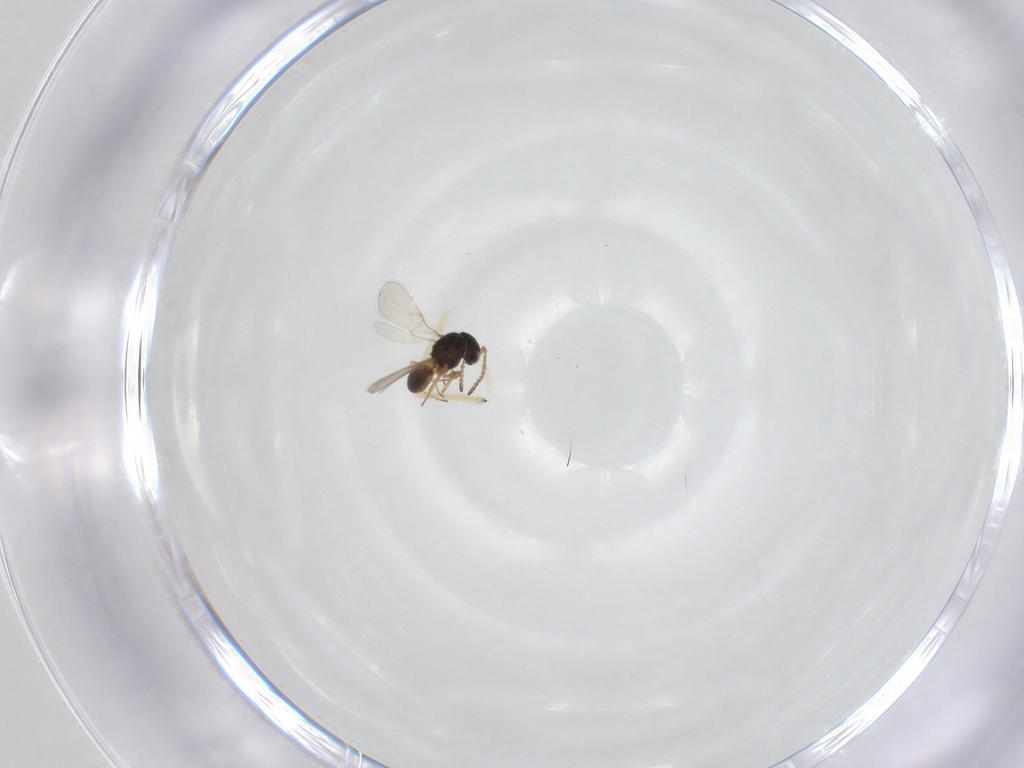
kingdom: Animalia
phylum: Arthropoda
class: Insecta
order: Hymenoptera
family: Scelionidae
